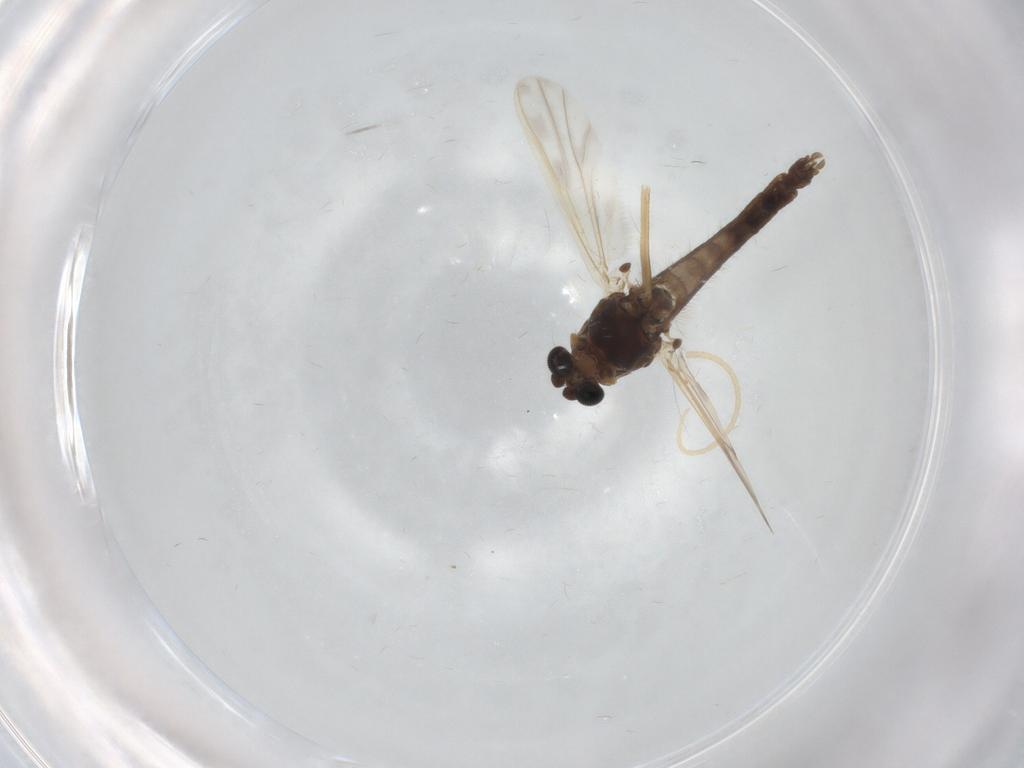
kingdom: Animalia
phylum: Arthropoda
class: Insecta
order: Diptera
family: Chironomidae
